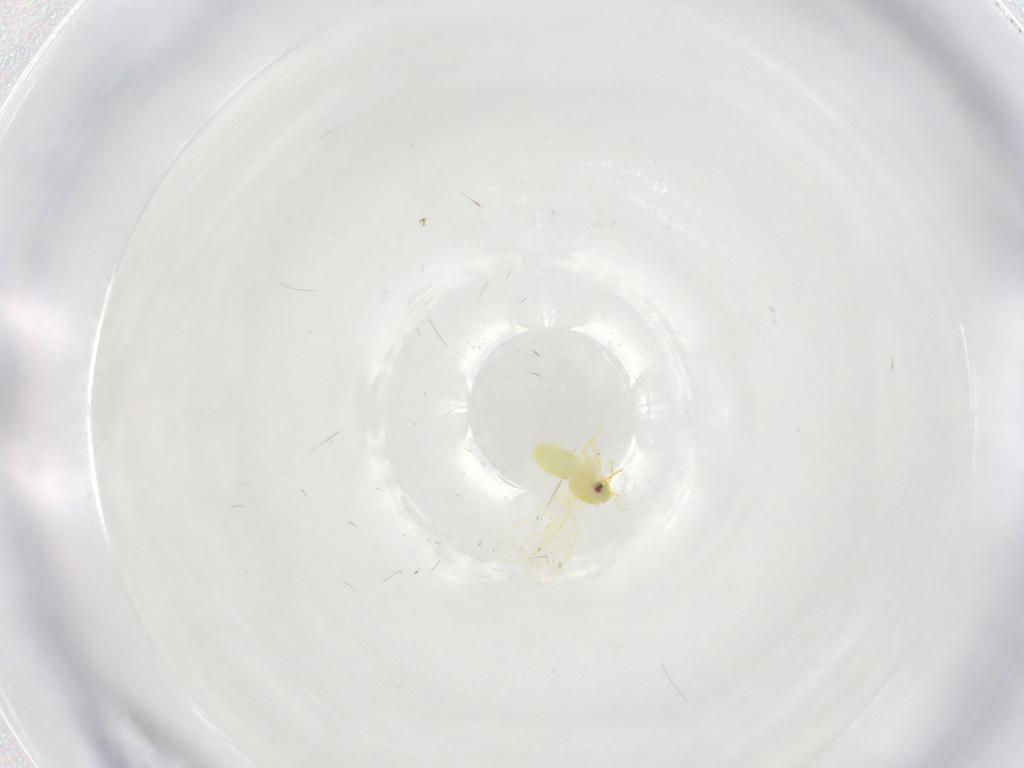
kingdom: Animalia
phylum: Arthropoda
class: Insecta
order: Hemiptera
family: Aleyrodidae
